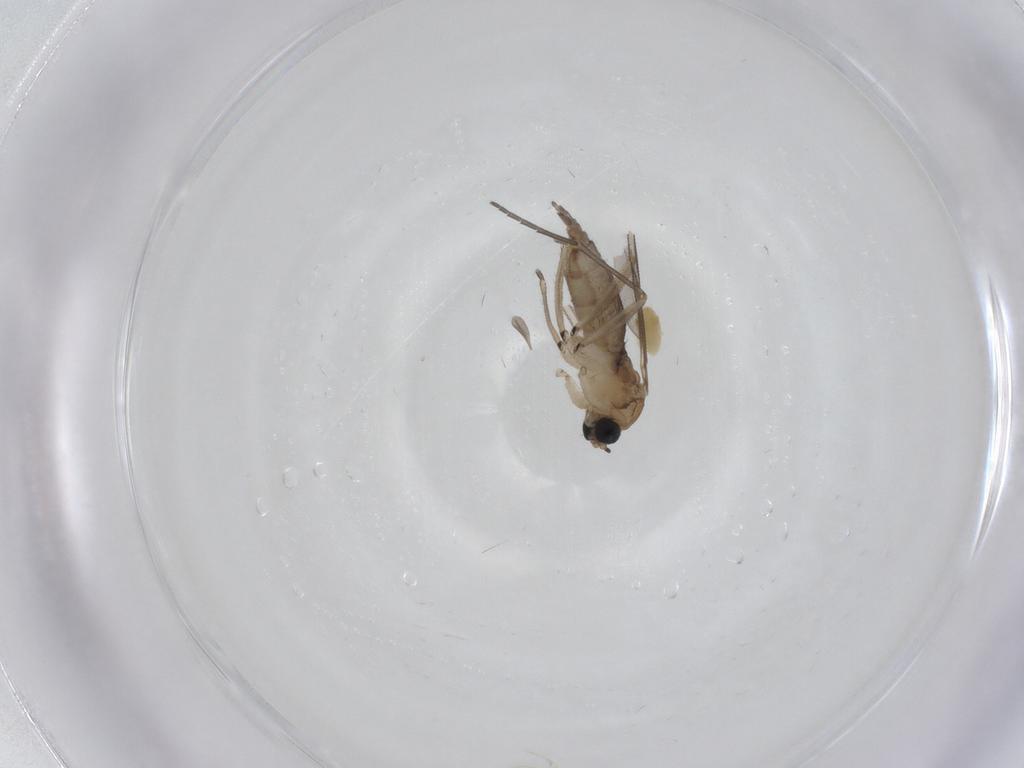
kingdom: Animalia
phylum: Arthropoda
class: Insecta
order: Diptera
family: Sciaridae
